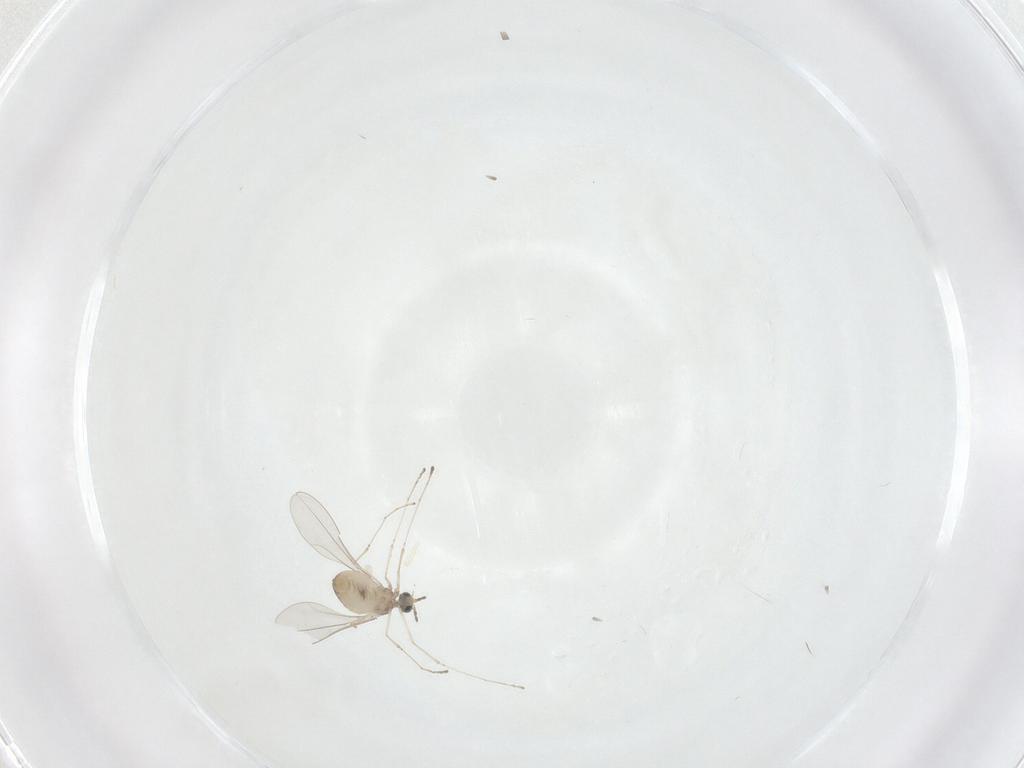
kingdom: Animalia
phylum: Arthropoda
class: Insecta
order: Diptera
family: Cecidomyiidae
